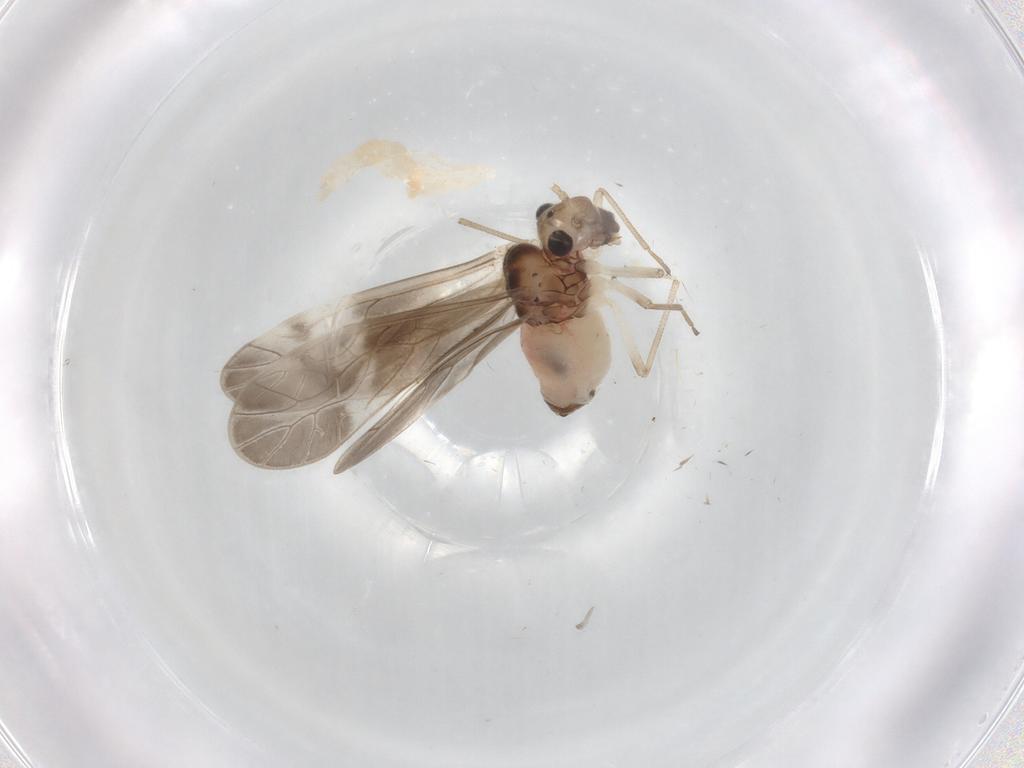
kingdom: Animalia
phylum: Arthropoda
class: Insecta
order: Psocodea
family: Caeciliusidae
